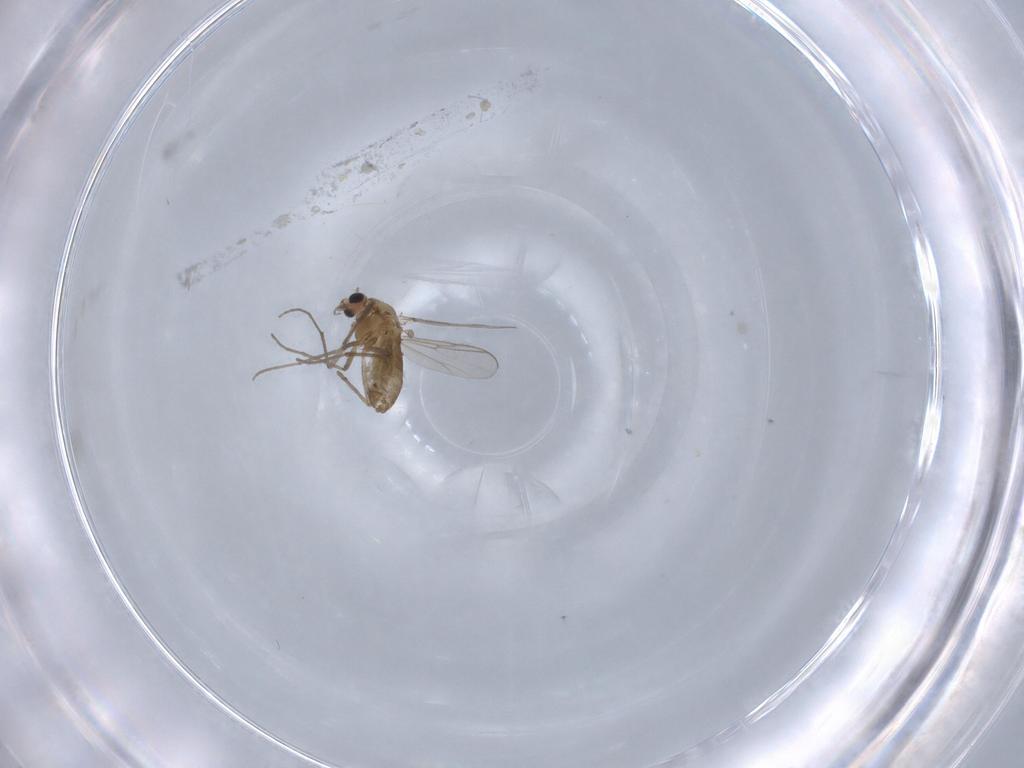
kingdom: Animalia
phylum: Arthropoda
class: Insecta
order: Diptera
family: Chironomidae
